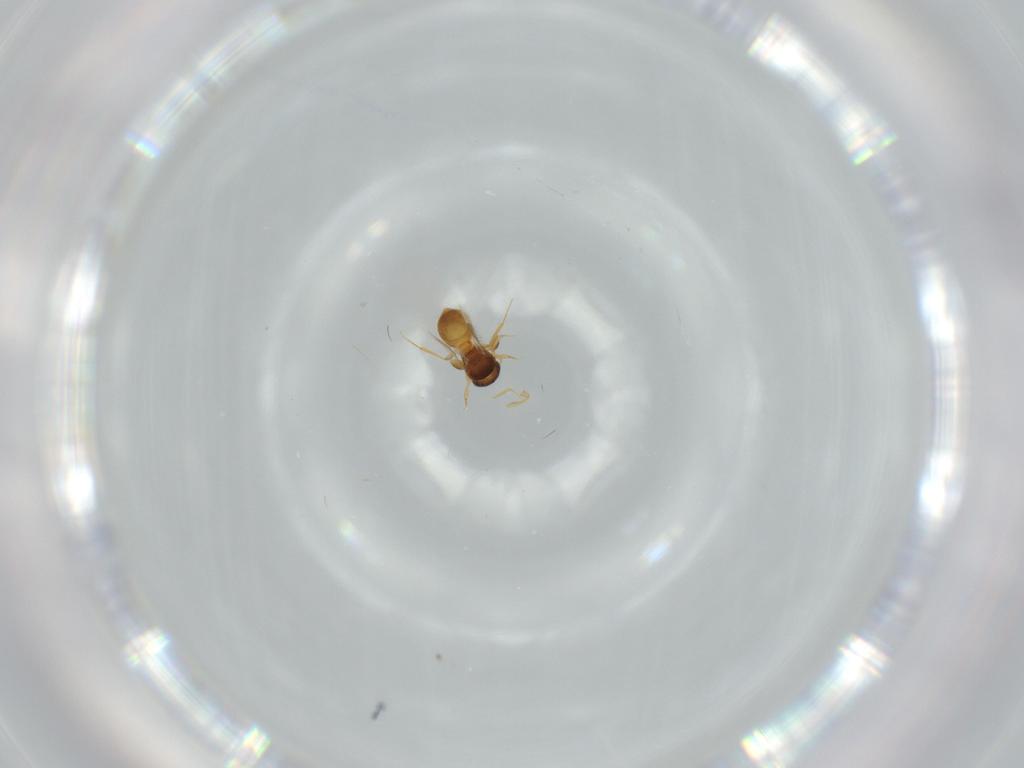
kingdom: Animalia
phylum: Arthropoda
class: Insecta
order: Hymenoptera
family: Scelionidae
